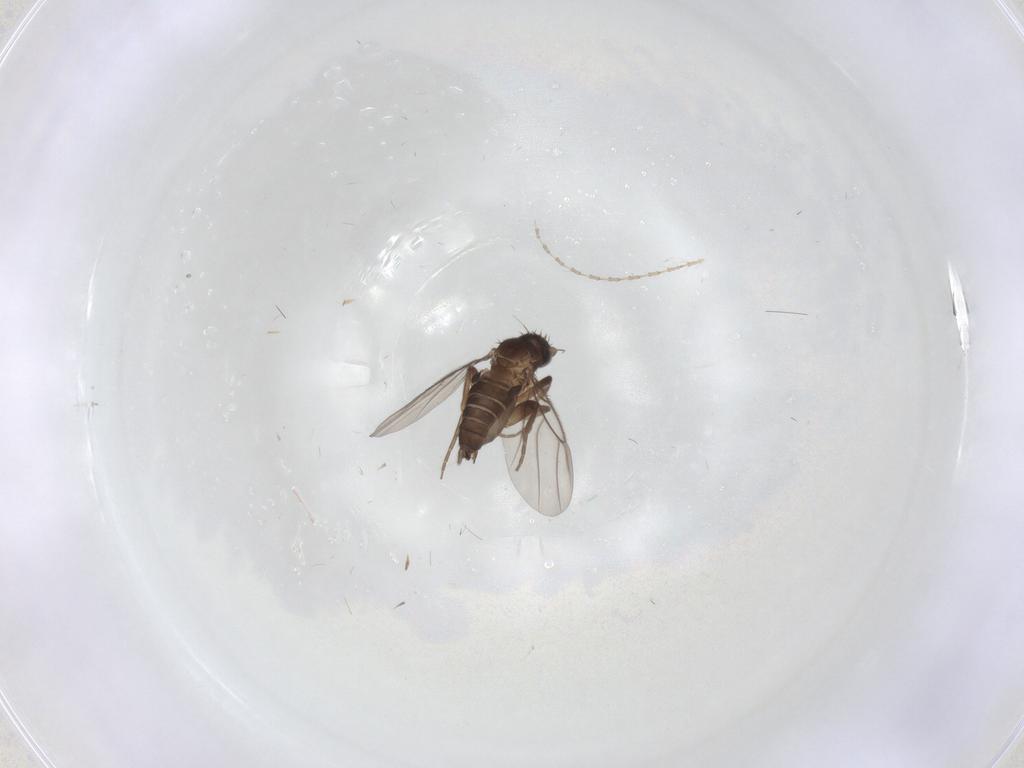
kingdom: Animalia
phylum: Arthropoda
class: Insecta
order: Diptera
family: Phoridae
